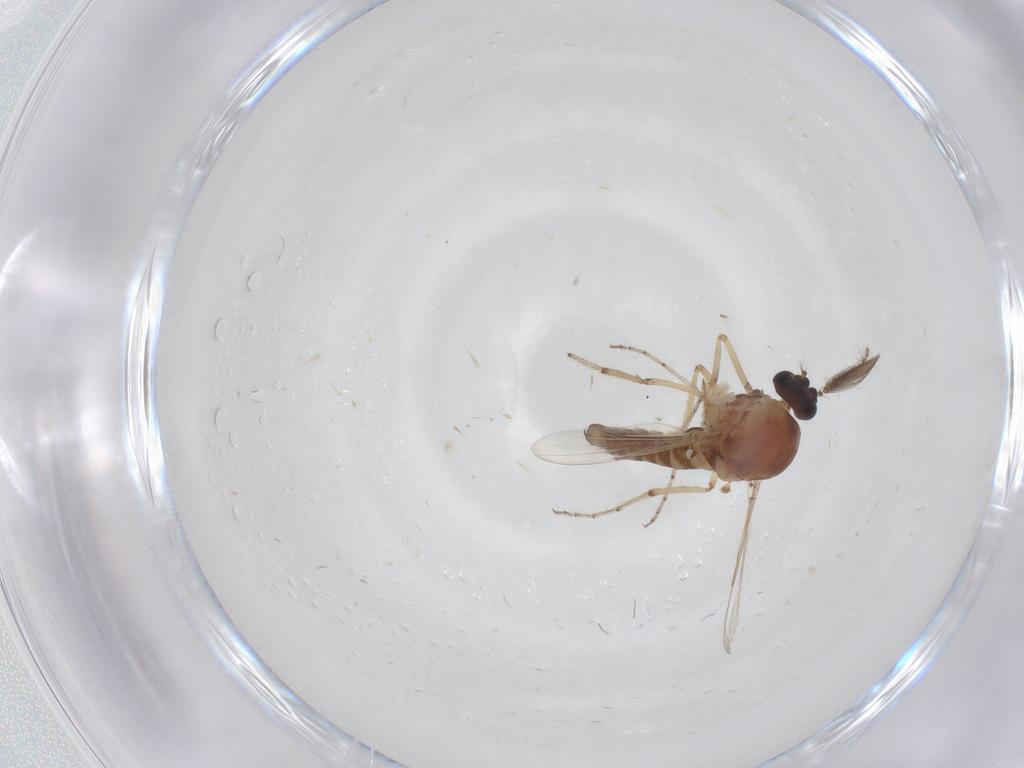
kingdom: Animalia
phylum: Arthropoda
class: Insecta
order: Diptera
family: Ceratopogonidae
